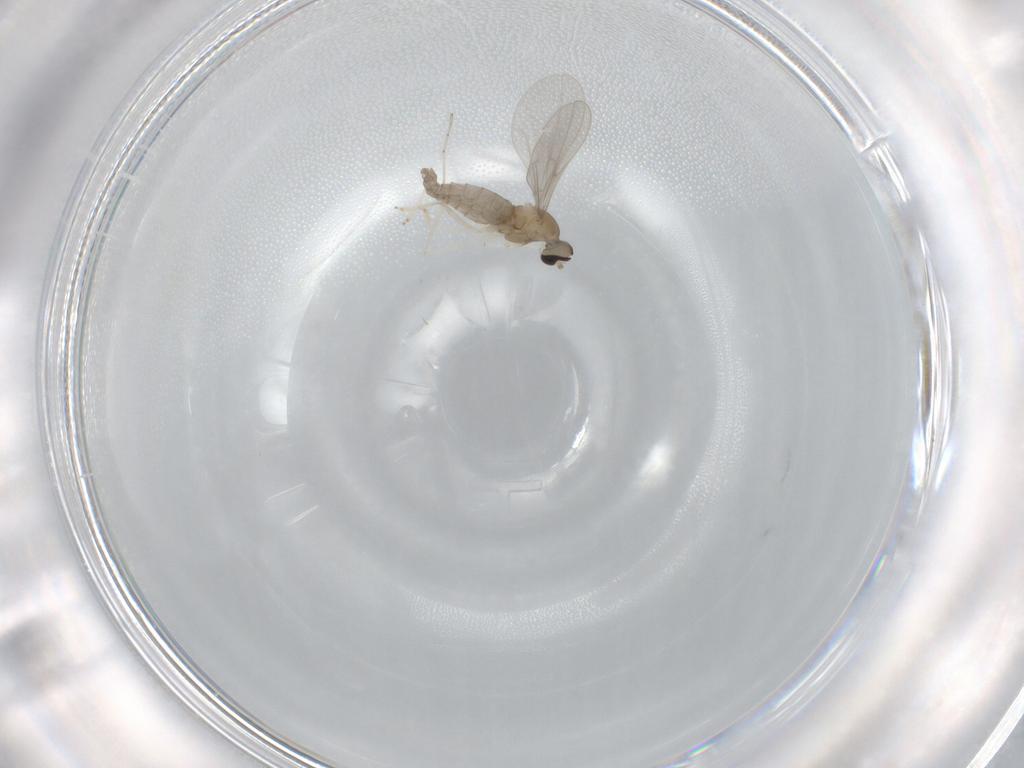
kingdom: Animalia
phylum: Arthropoda
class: Insecta
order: Diptera
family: Cecidomyiidae
